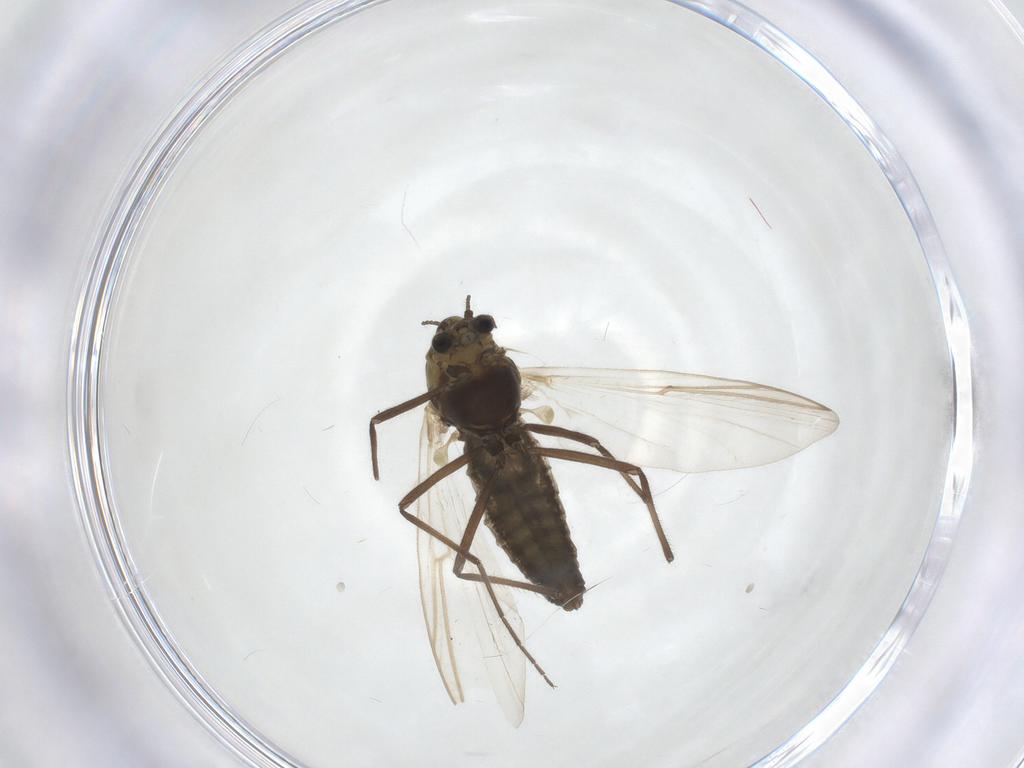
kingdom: Animalia
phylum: Arthropoda
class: Insecta
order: Diptera
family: Chironomidae
